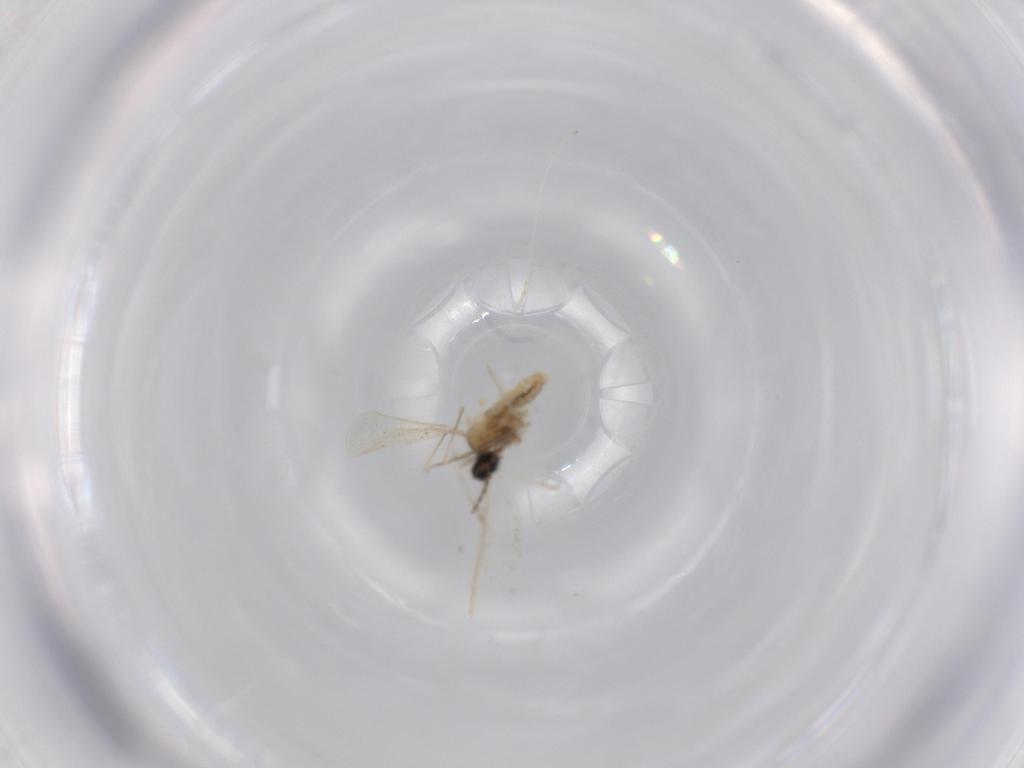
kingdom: Animalia
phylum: Arthropoda
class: Insecta
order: Diptera
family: Cecidomyiidae
